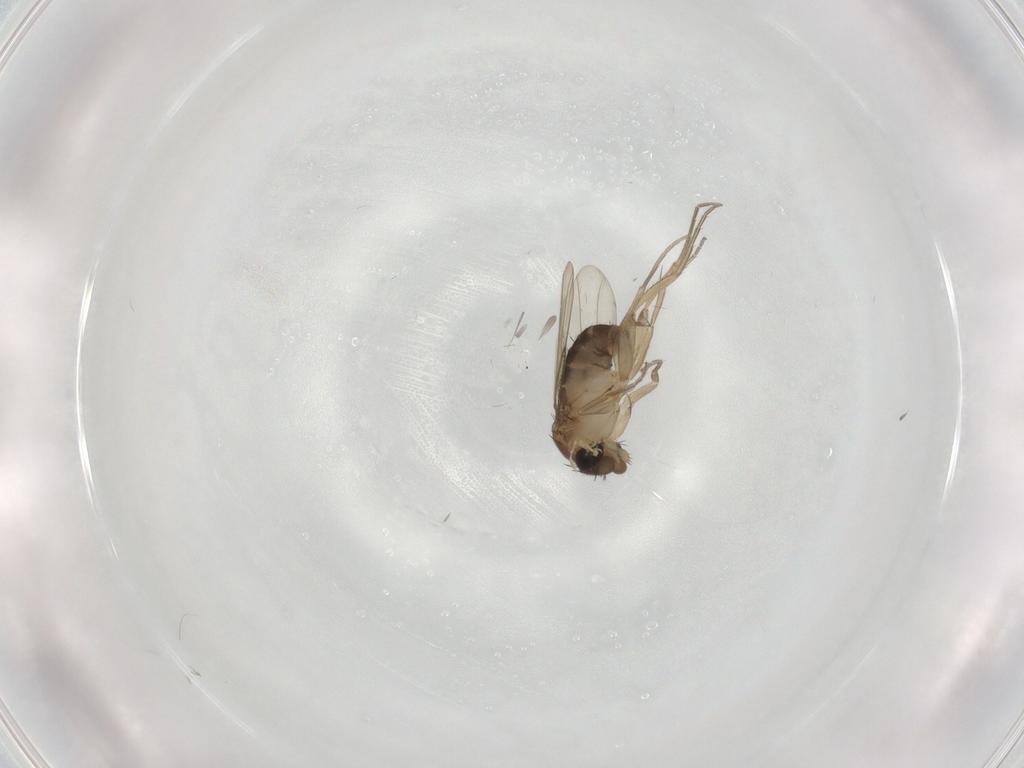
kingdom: Animalia
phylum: Arthropoda
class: Insecta
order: Diptera
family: Phoridae
